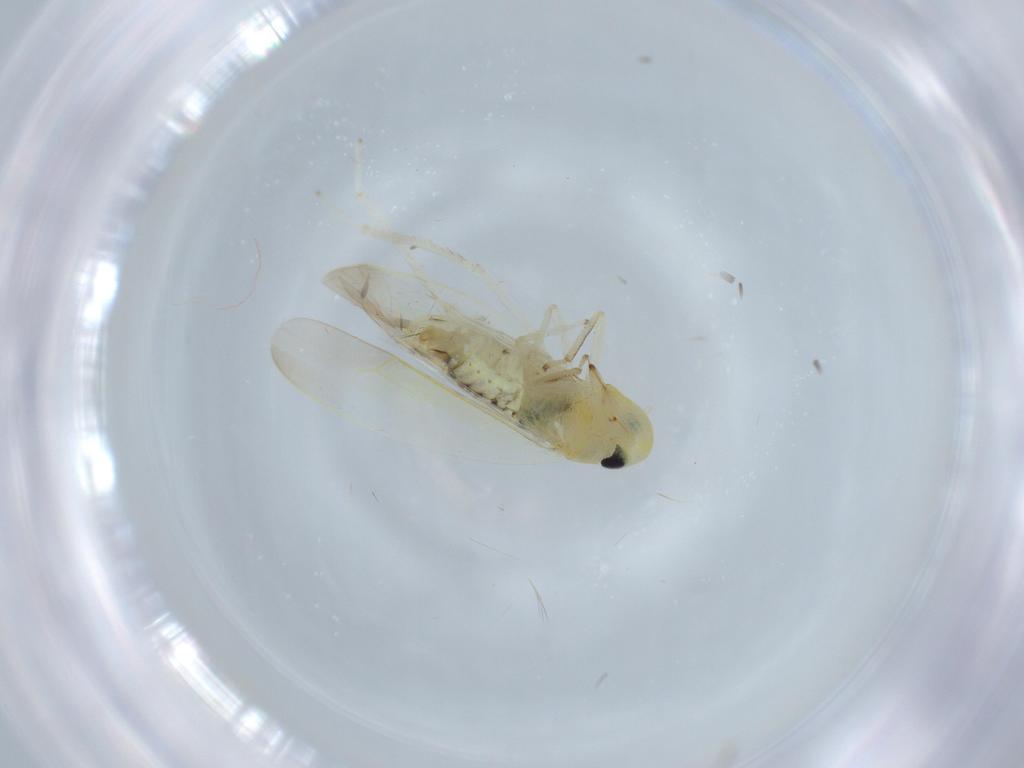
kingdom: Animalia
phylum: Arthropoda
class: Insecta
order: Hemiptera
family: Cicadellidae
